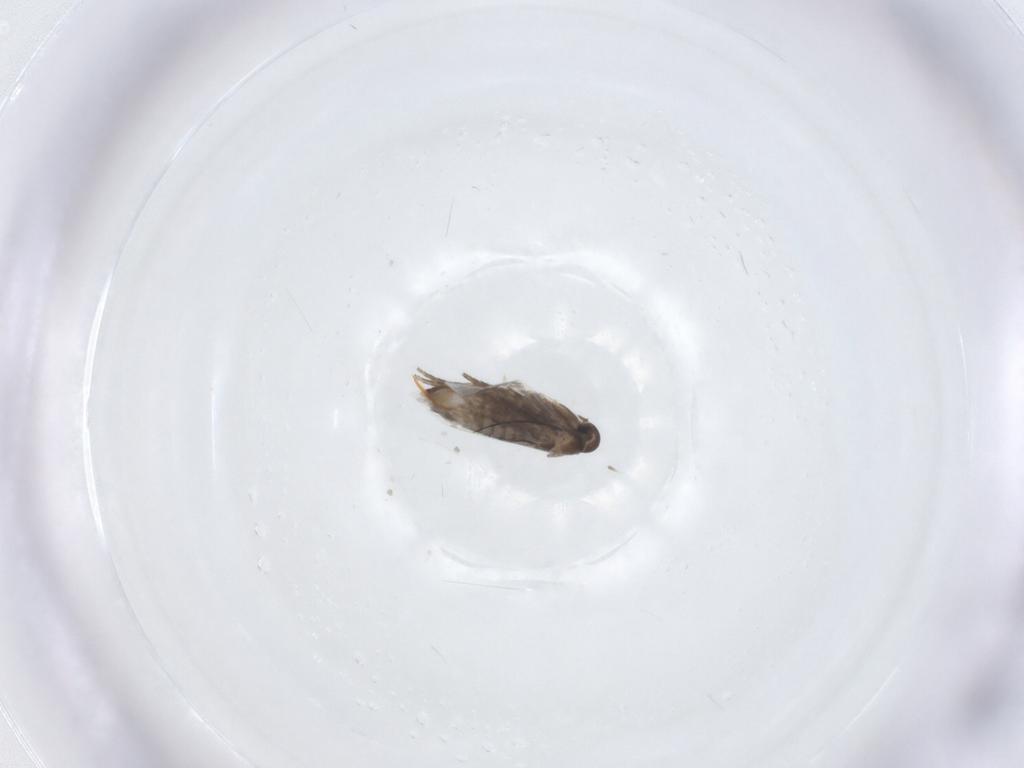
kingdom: Animalia
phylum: Arthropoda
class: Insecta
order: Lepidoptera
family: Heliozelidae
